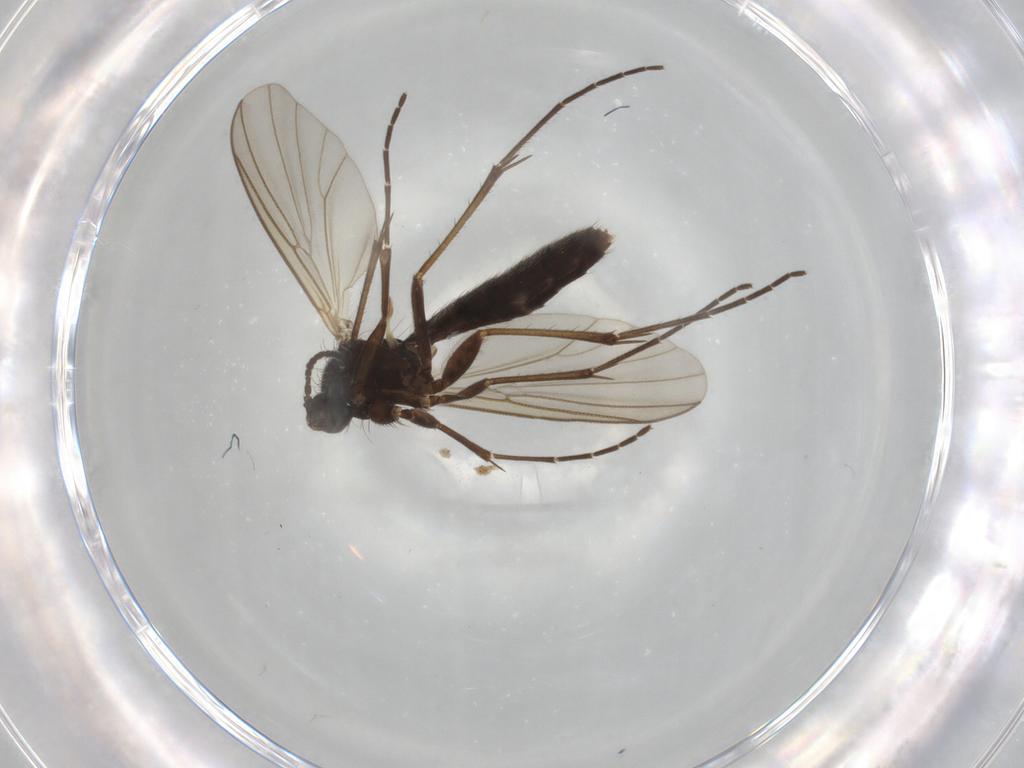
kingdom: Animalia
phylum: Arthropoda
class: Insecta
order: Diptera
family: Mycetophilidae
